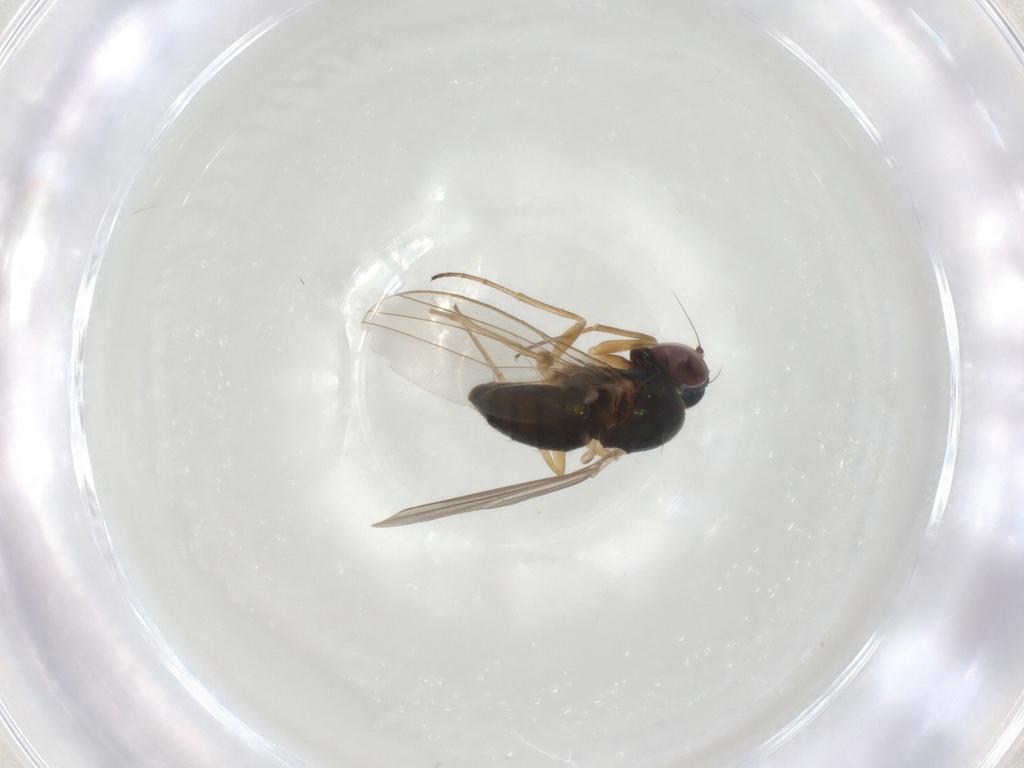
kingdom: Animalia
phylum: Arthropoda
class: Insecta
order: Diptera
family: Dolichopodidae
